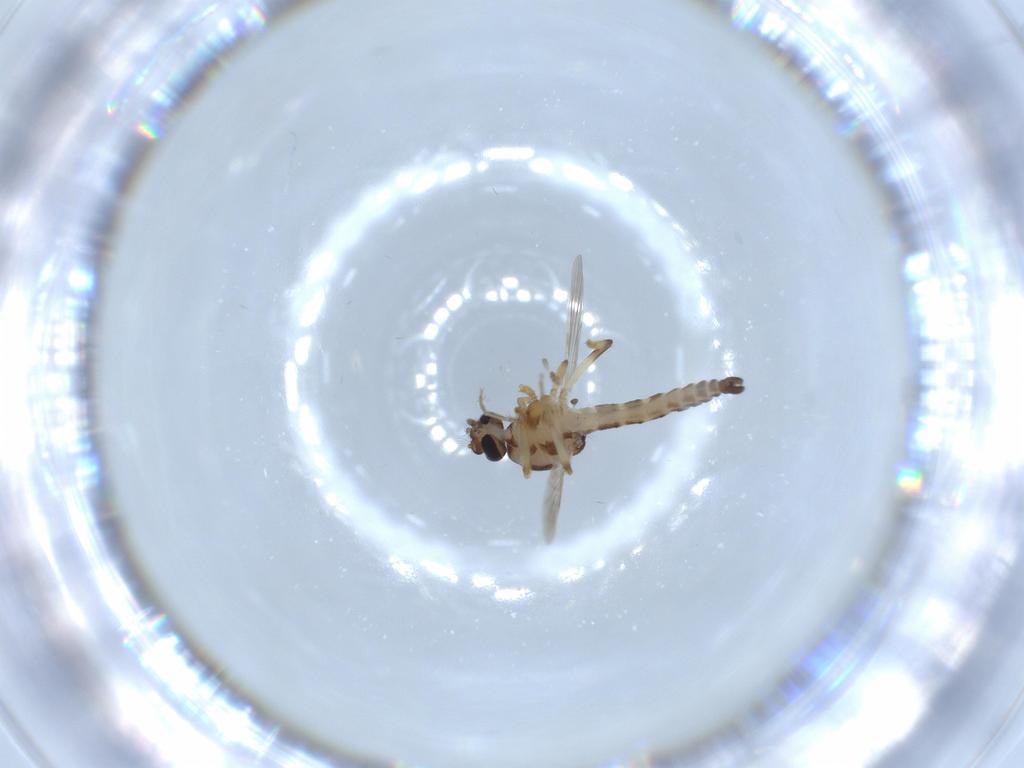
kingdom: Animalia
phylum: Arthropoda
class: Insecta
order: Diptera
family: Ceratopogonidae
